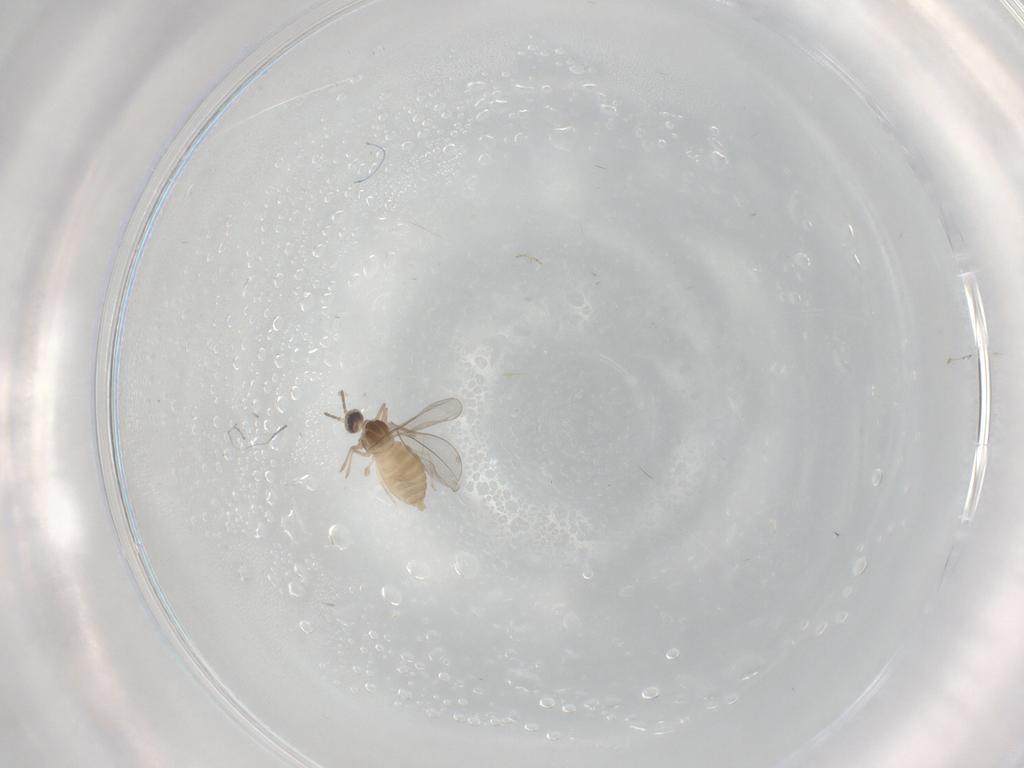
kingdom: Animalia
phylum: Arthropoda
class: Insecta
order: Diptera
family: Cecidomyiidae
